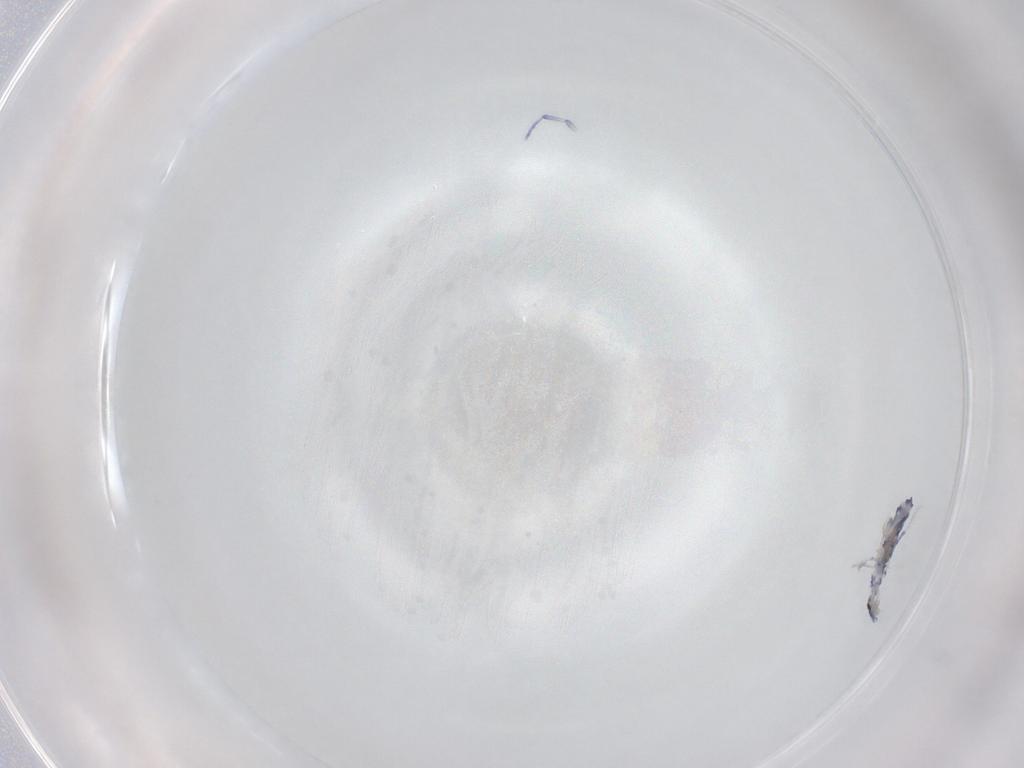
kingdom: Animalia
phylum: Arthropoda
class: Collembola
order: Entomobryomorpha
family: Entomobryidae
